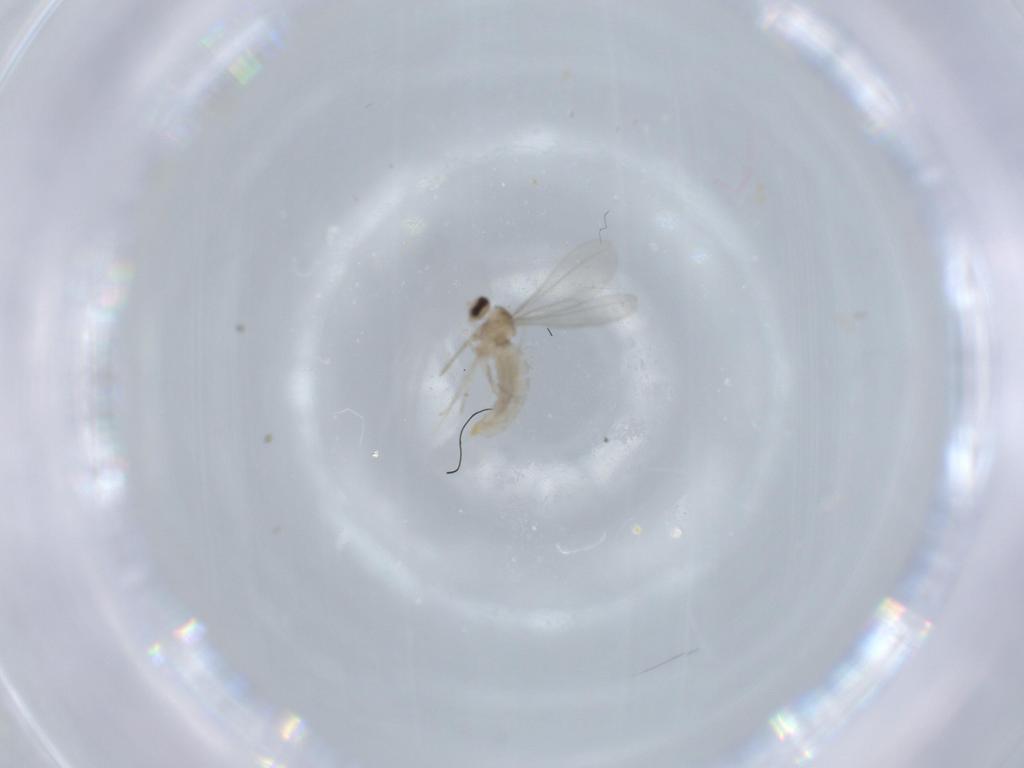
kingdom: Animalia
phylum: Arthropoda
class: Insecta
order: Diptera
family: Cecidomyiidae
